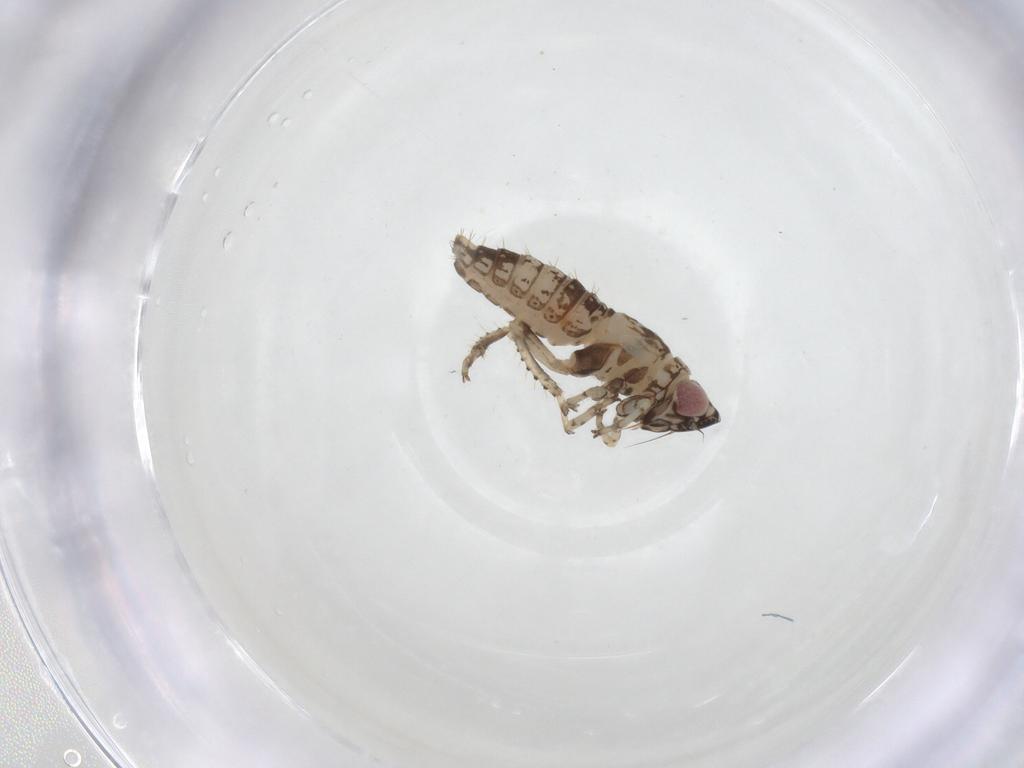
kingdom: Animalia
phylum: Arthropoda
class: Insecta
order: Hemiptera
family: Cicadellidae
